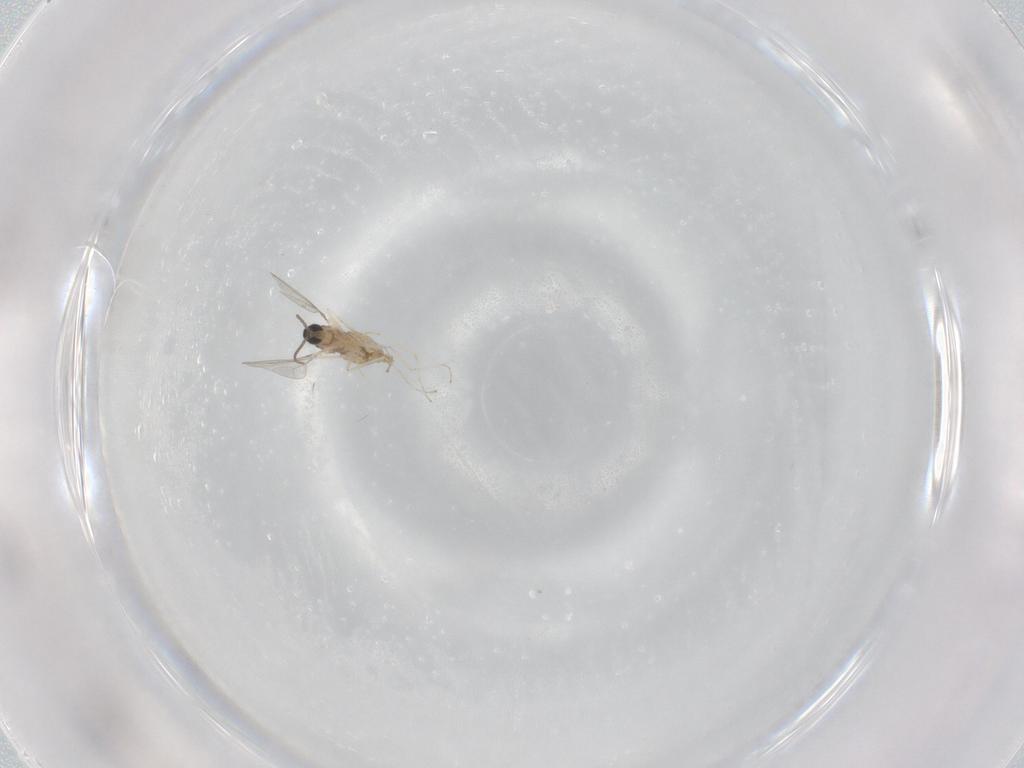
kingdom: Animalia
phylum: Arthropoda
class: Insecta
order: Diptera
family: Cecidomyiidae
